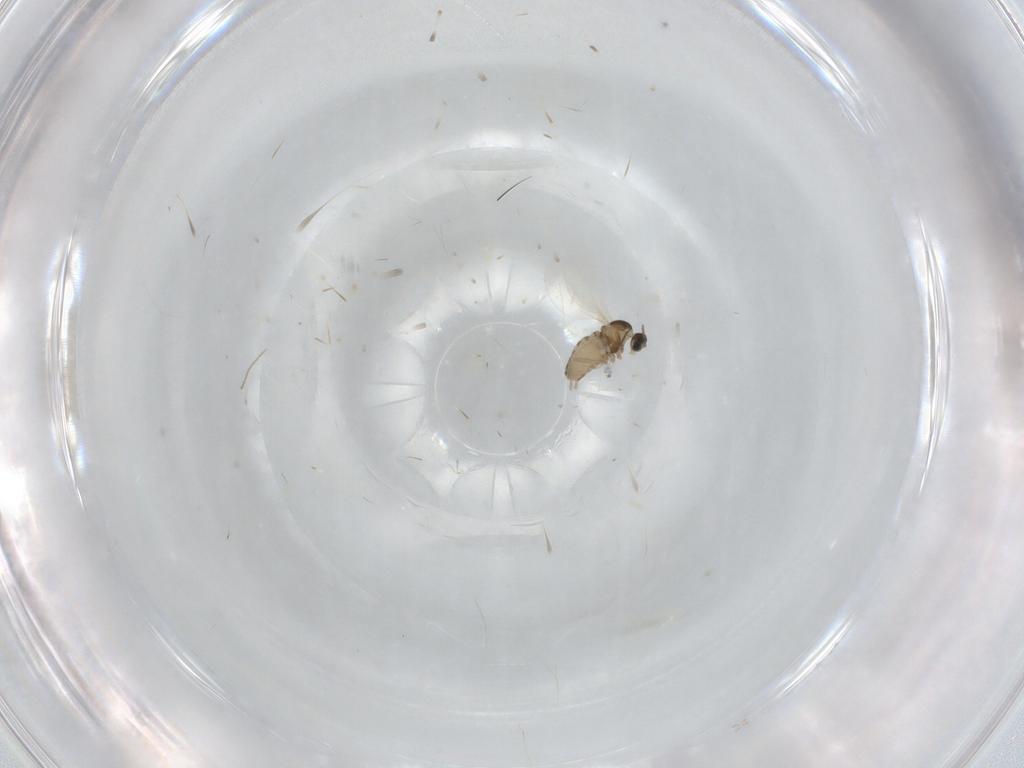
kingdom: Animalia
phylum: Arthropoda
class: Insecta
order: Diptera
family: Cecidomyiidae
